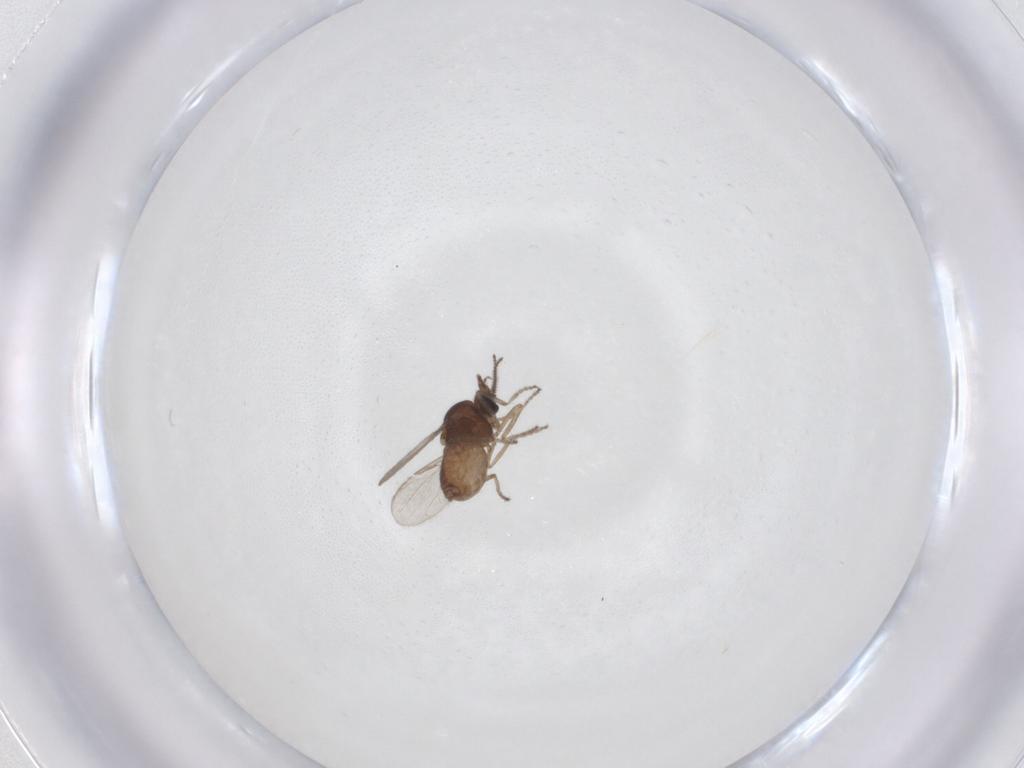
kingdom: Animalia
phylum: Arthropoda
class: Insecta
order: Diptera
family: Ceratopogonidae
